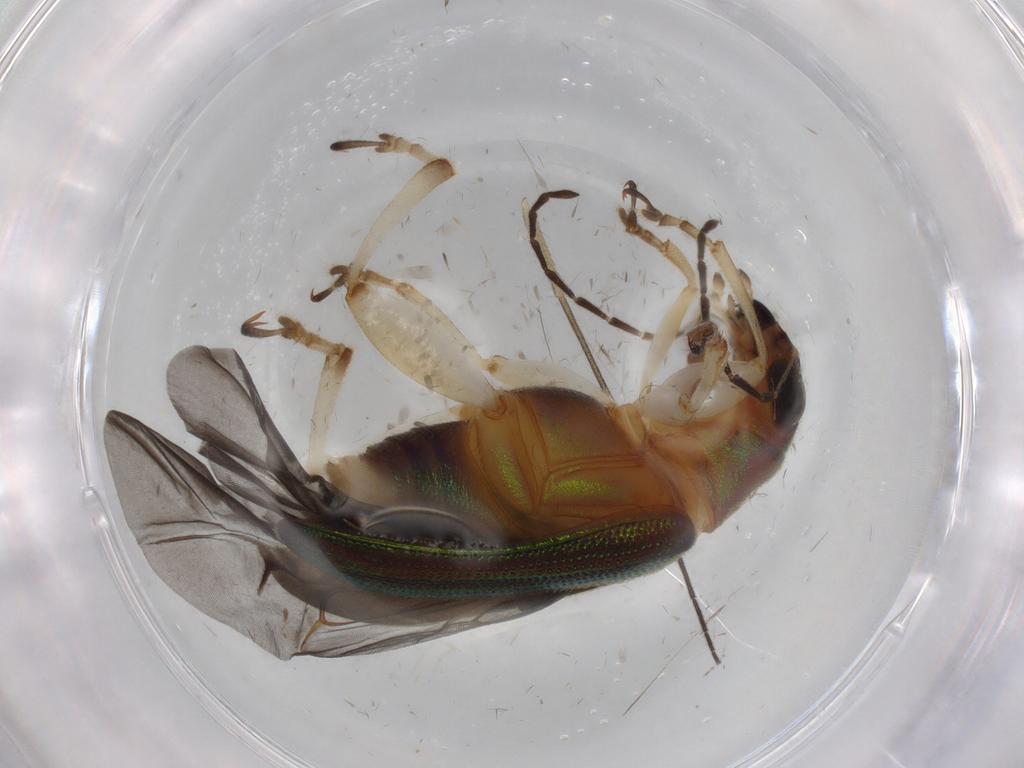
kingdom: Animalia
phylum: Arthropoda
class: Insecta
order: Coleoptera
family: Chrysomelidae
